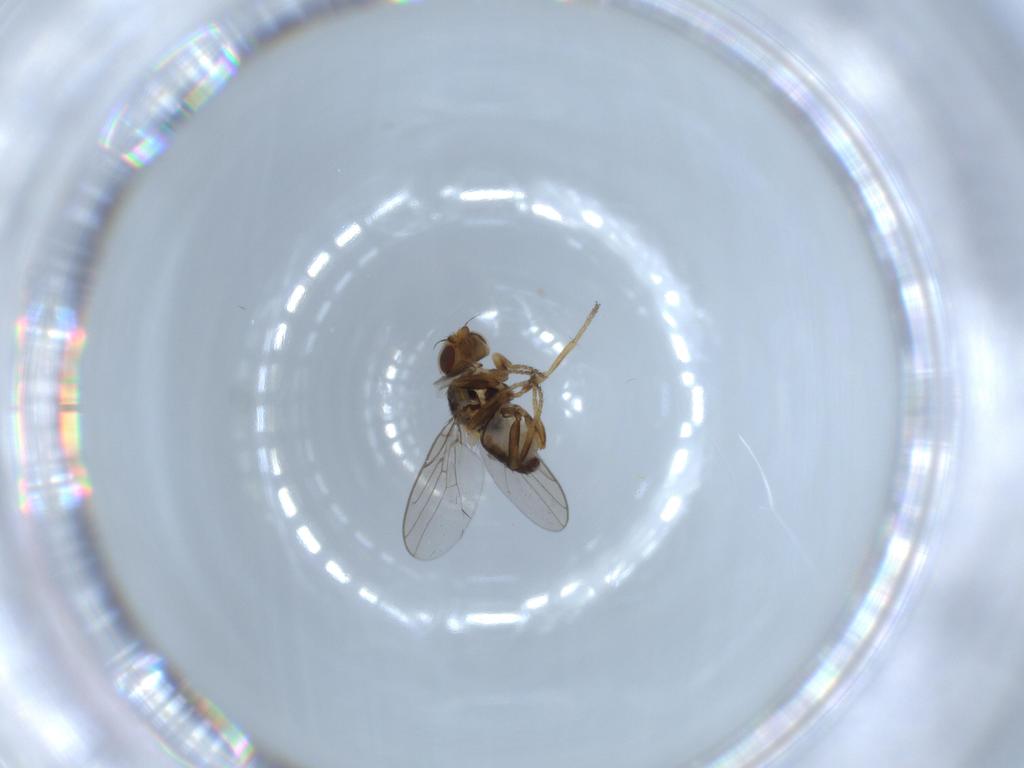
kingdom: Animalia
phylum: Arthropoda
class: Insecta
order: Diptera
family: Chloropidae
